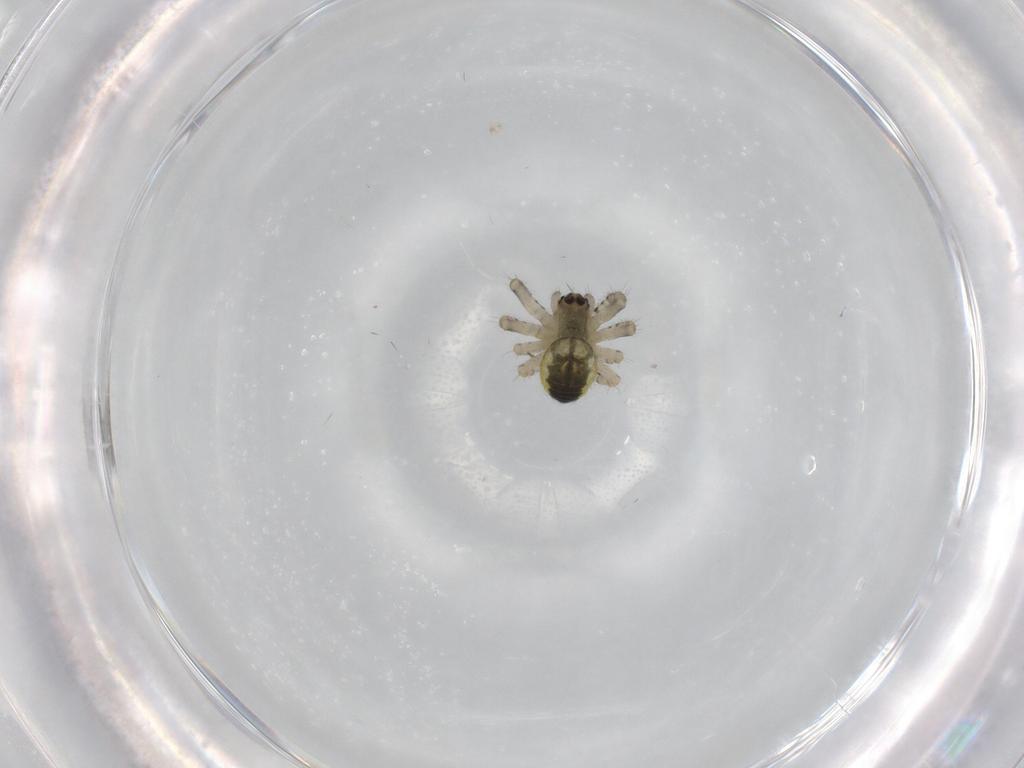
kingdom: Animalia
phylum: Arthropoda
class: Arachnida
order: Araneae
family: Araneidae
